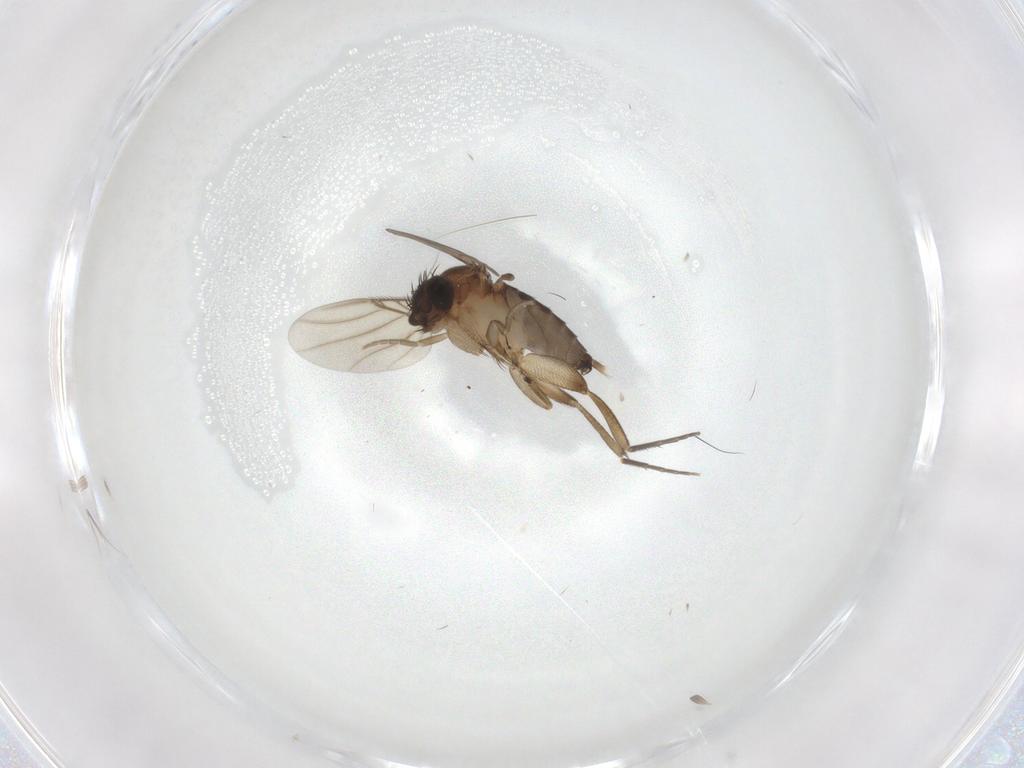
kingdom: Animalia
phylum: Arthropoda
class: Insecta
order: Diptera
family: Phoridae
